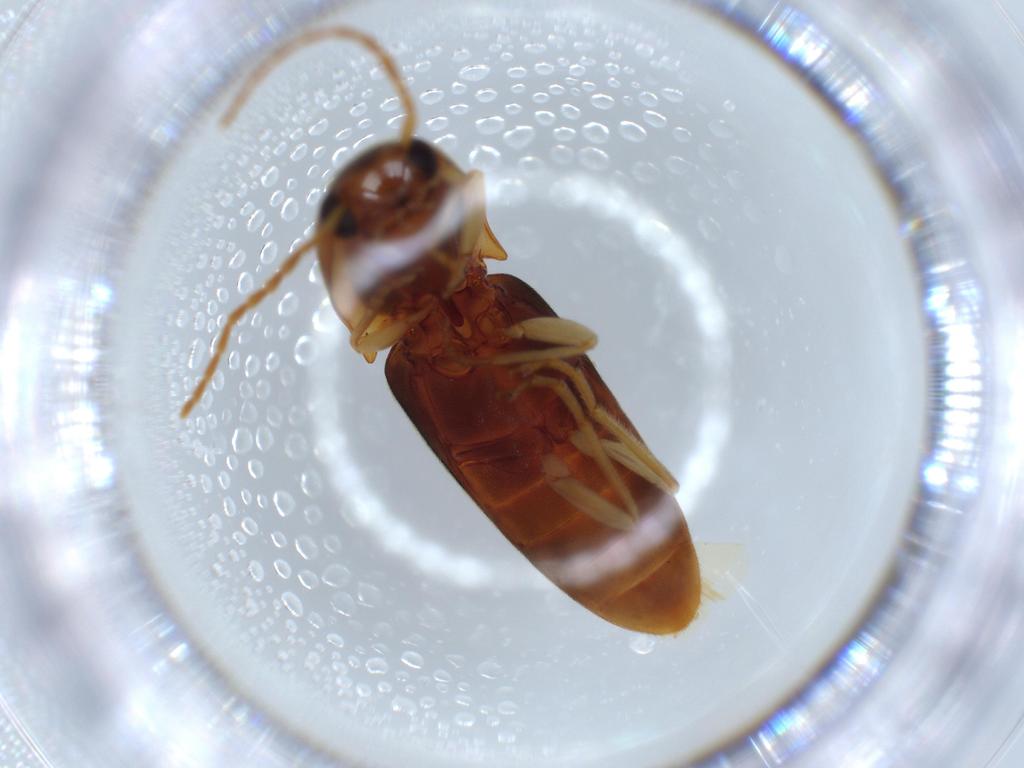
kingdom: Animalia
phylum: Arthropoda
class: Insecta
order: Coleoptera
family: Elateridae
